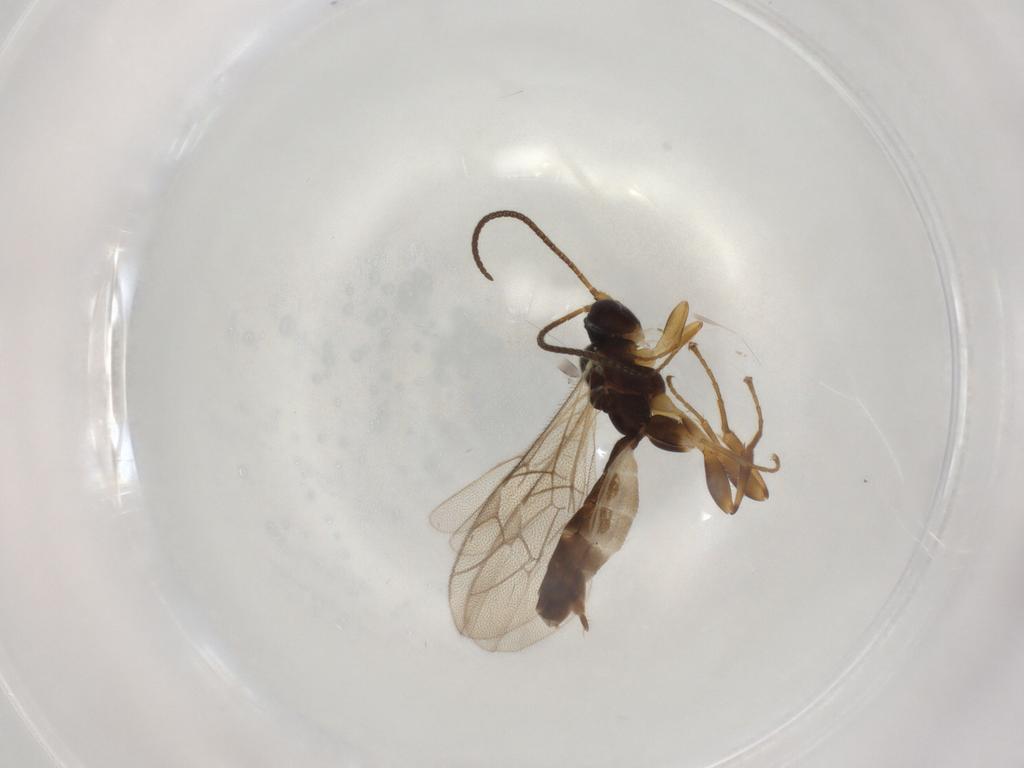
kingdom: Animalia
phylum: Arthropoda
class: Insecta
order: Hymenoptera
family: Ichneumonidae
